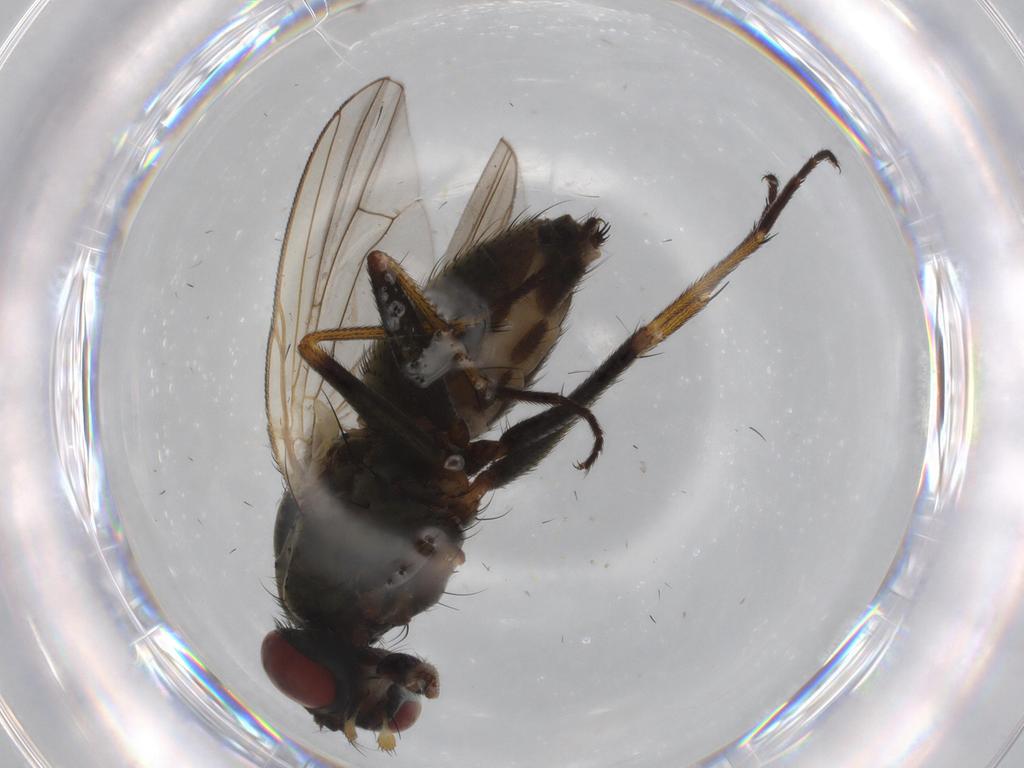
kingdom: Animalia
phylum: Arthropoda
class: Insecta
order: Diptera
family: Muscidae
